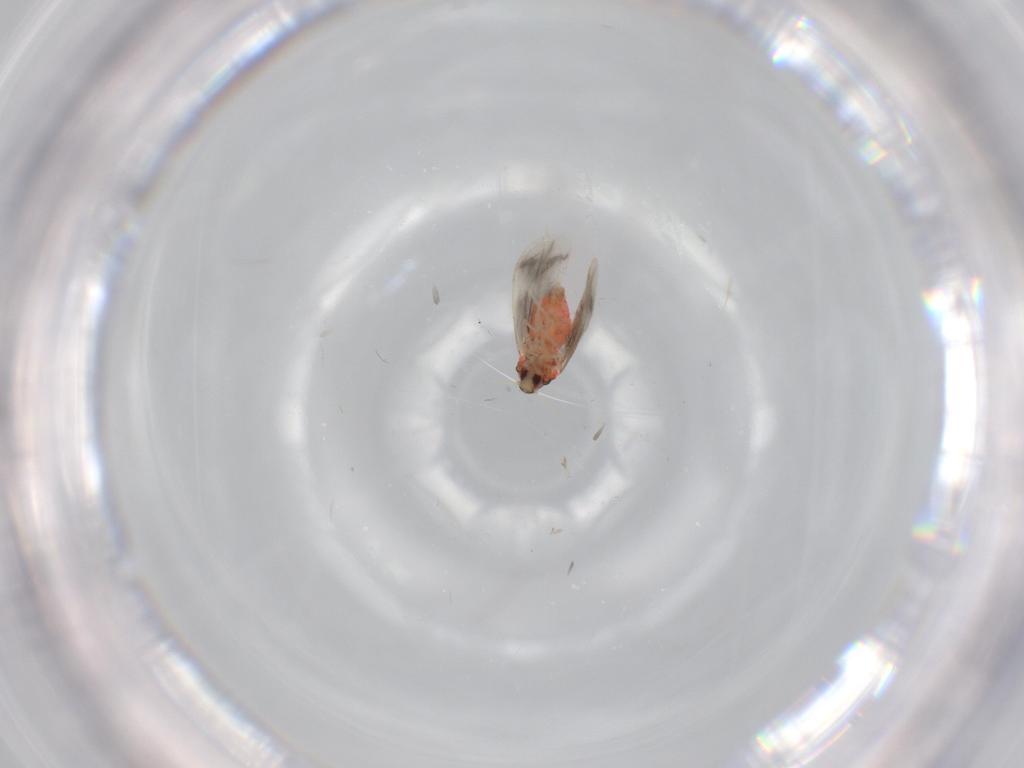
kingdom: Animalia
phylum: Arthropoda
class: Insecta
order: Hemiptera
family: Aleyrodidae
